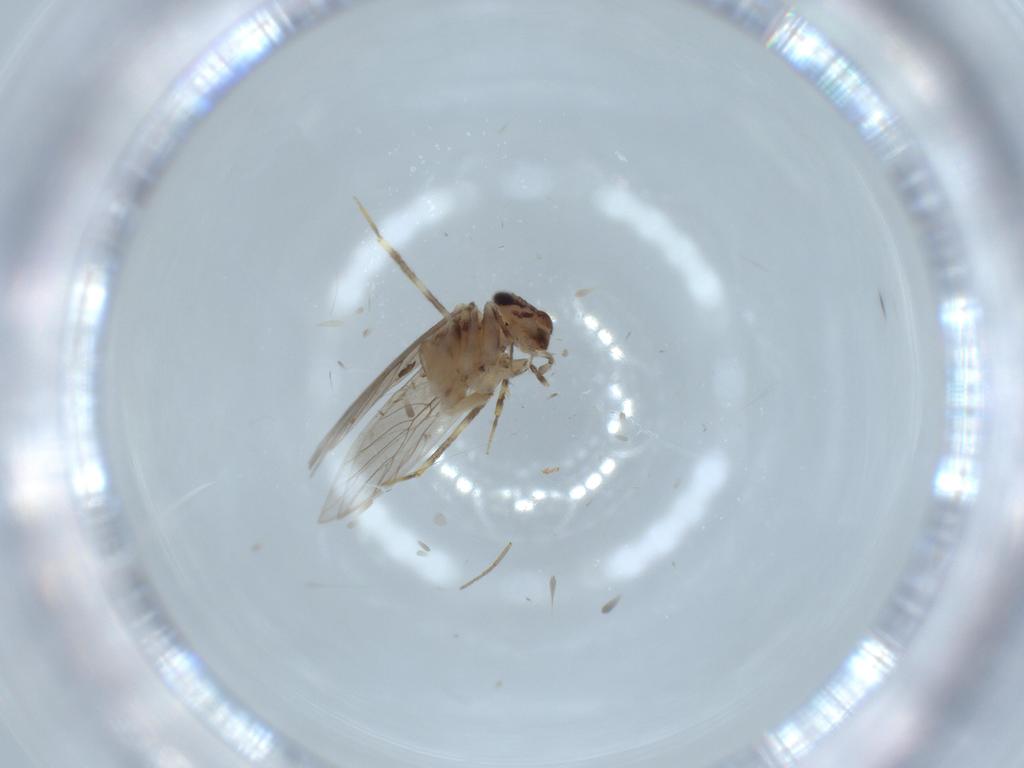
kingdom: Animalia
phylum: Arthropoda
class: Insecta
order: Psocodea
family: Lepidopsocidae
